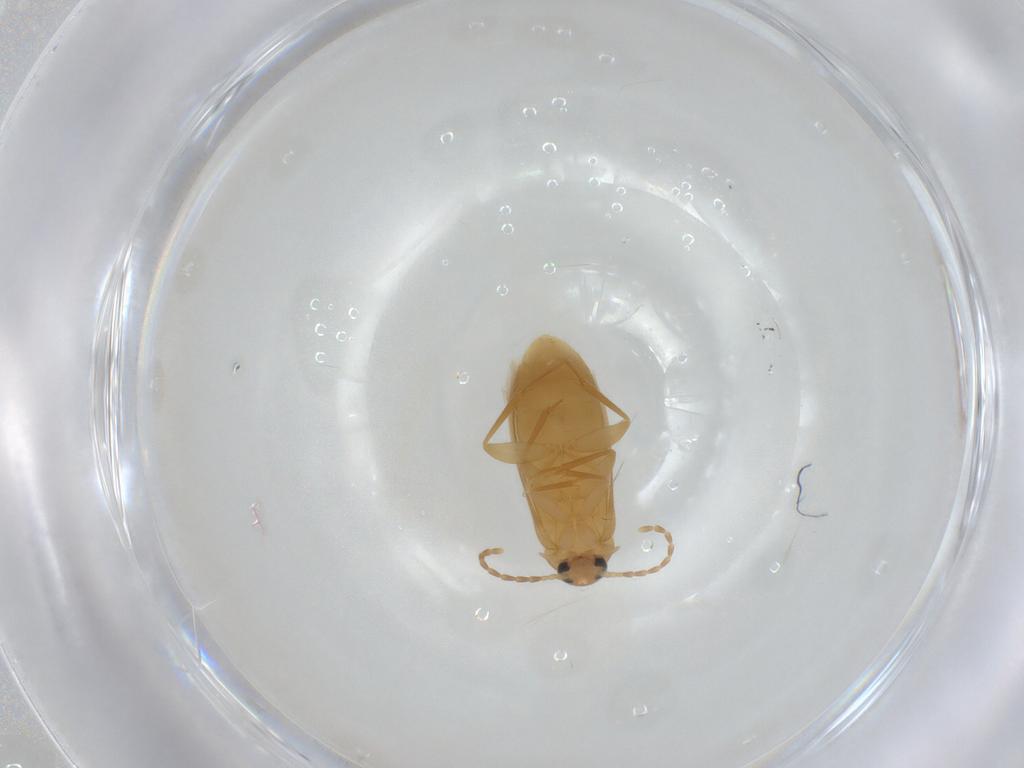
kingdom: Animalia
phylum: Arthropoda
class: Insecta
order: Coleoptera
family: Scraptiidae
